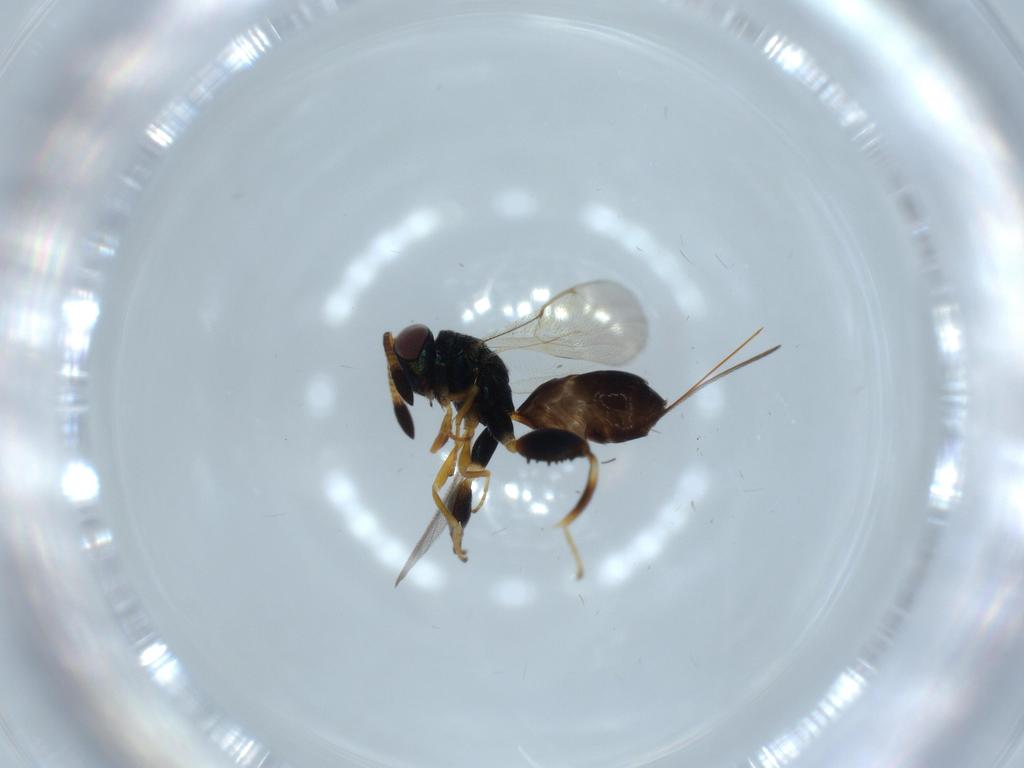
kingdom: Animalia
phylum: Arthropoda
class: Insecta
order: Hymenoptera
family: Torymidae
